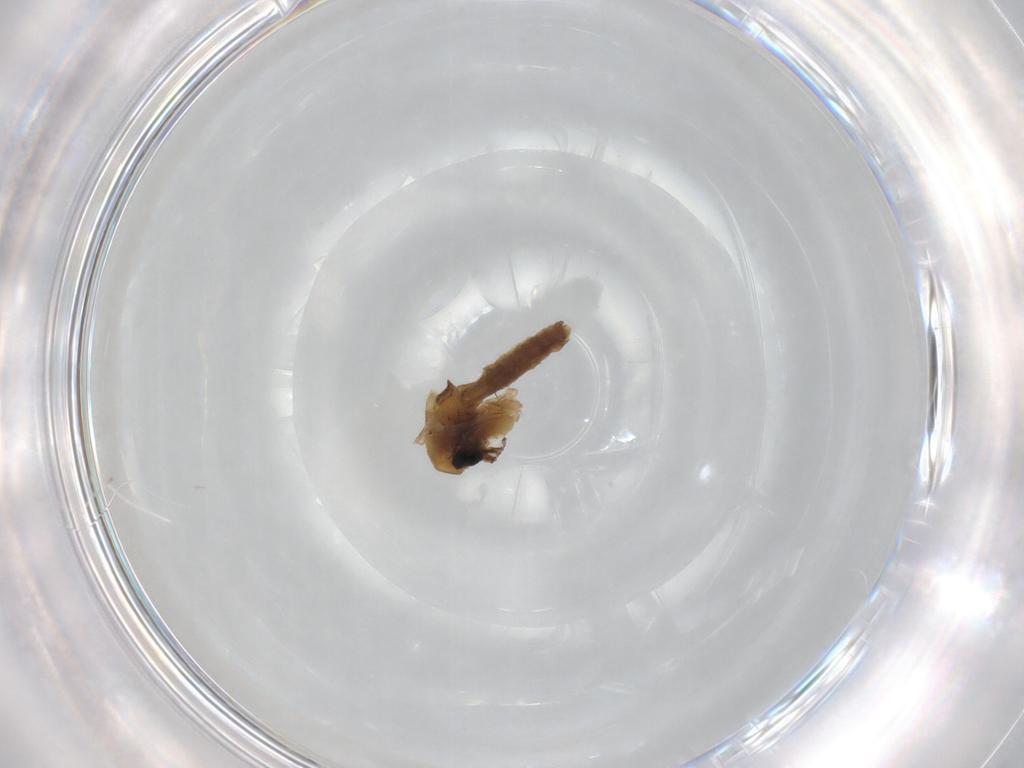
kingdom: Animalia
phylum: Arthropoda
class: Insecta
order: Diptera
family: Chironomidae
